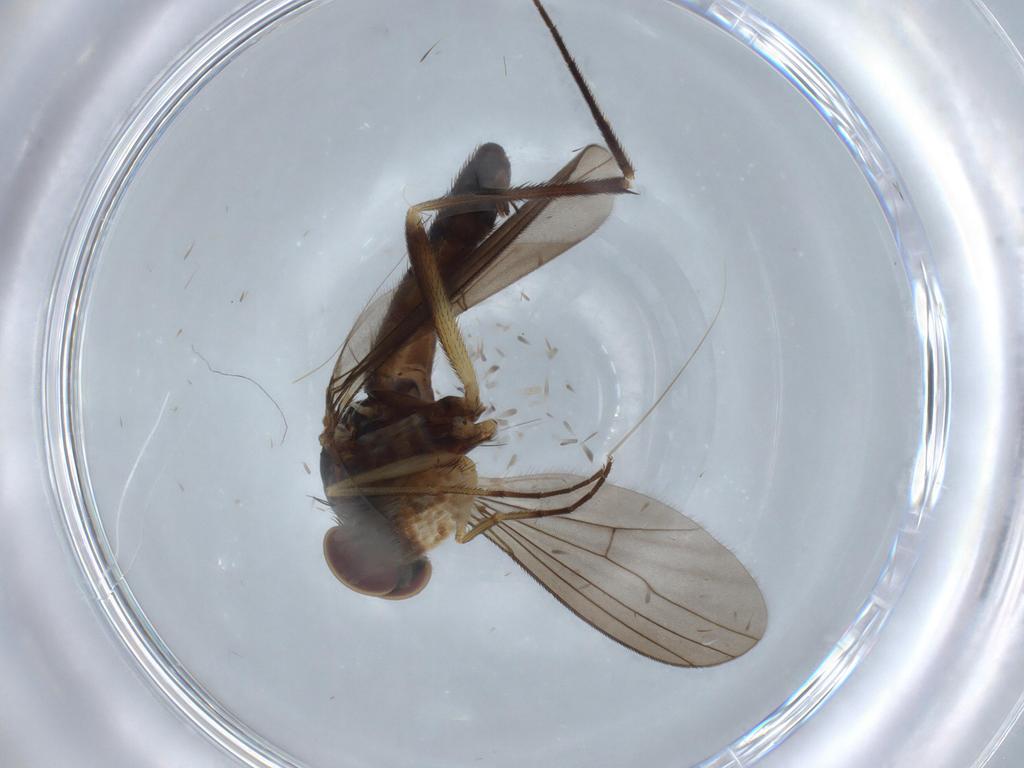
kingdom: Animalia
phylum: Arthropoda
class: Insecta
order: Diptera
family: Dolichopodidae
